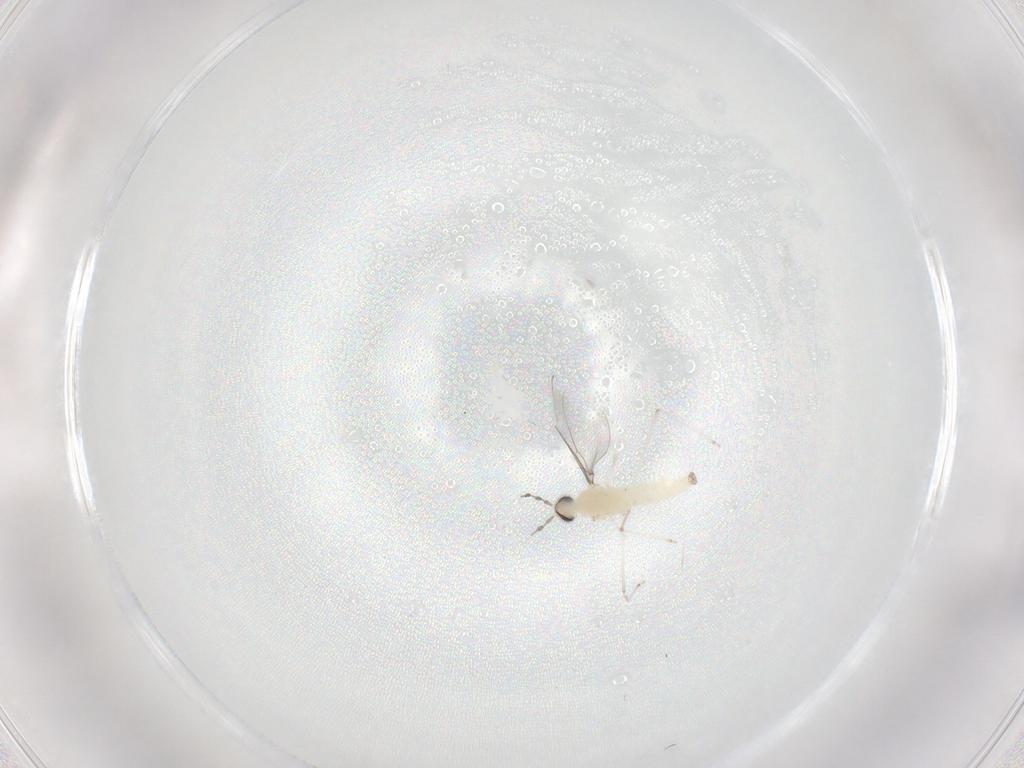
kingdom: Animalia
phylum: Arthropoda
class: Insecta
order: Diptera
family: Cecidomyiidae
